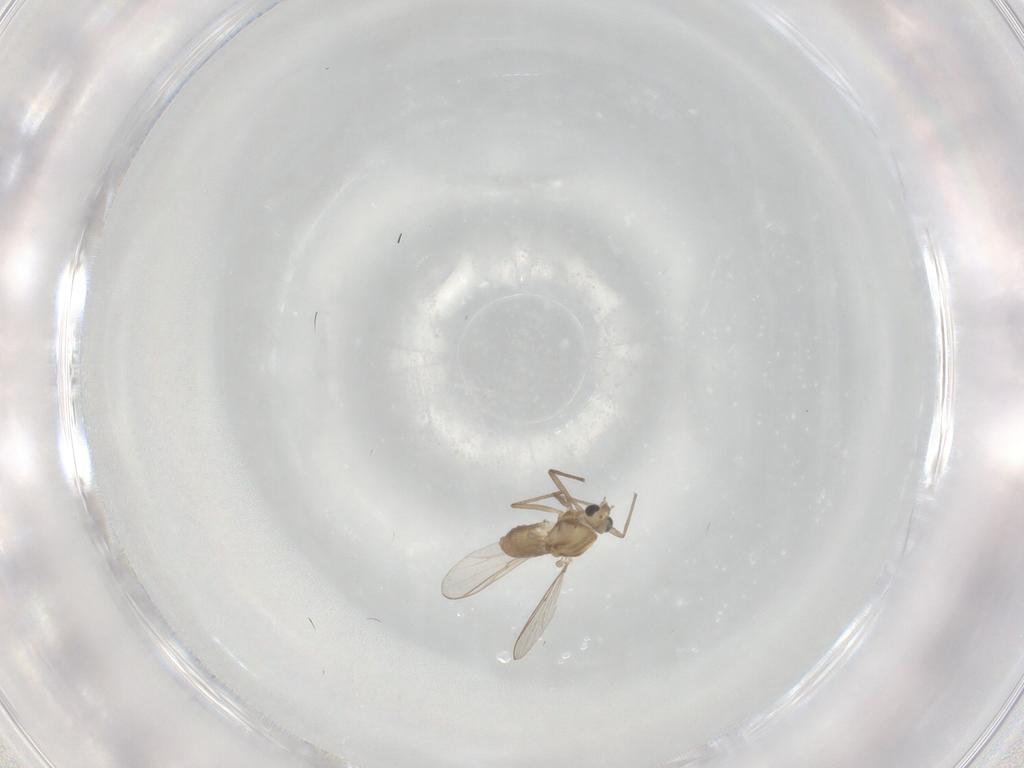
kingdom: Animalia
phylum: Arthropoda
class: Insecta
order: Diptera
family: Chironomidae
